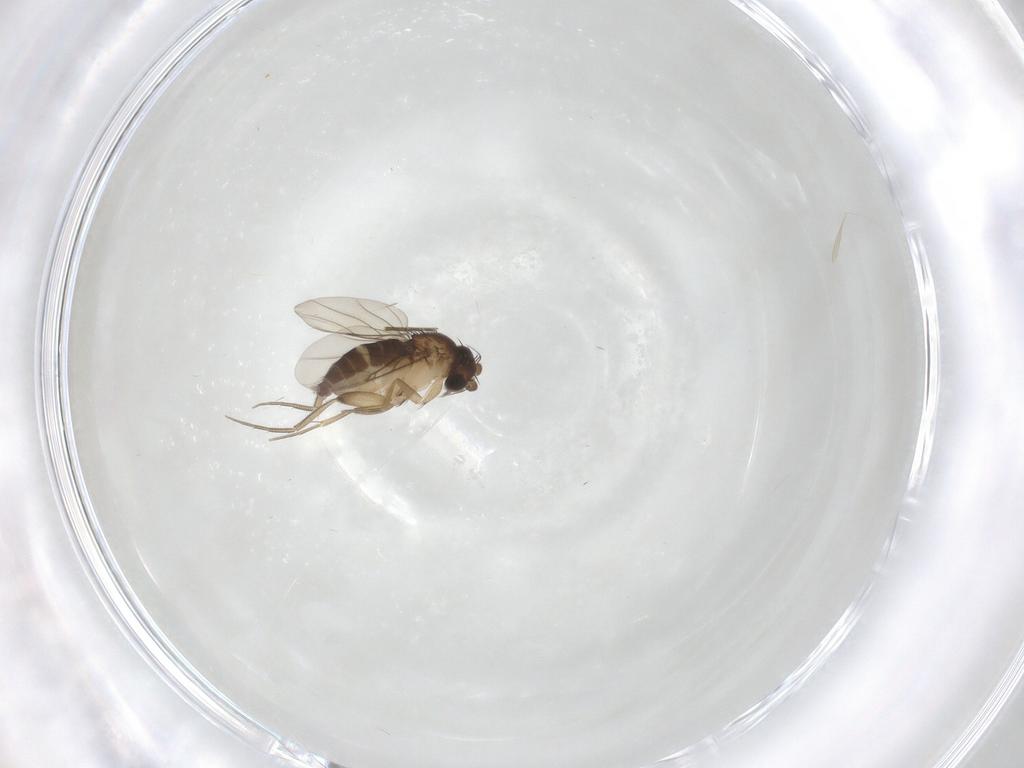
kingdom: Animalia
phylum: Arthropoda
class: Insecta
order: Diptera
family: Phoridae
